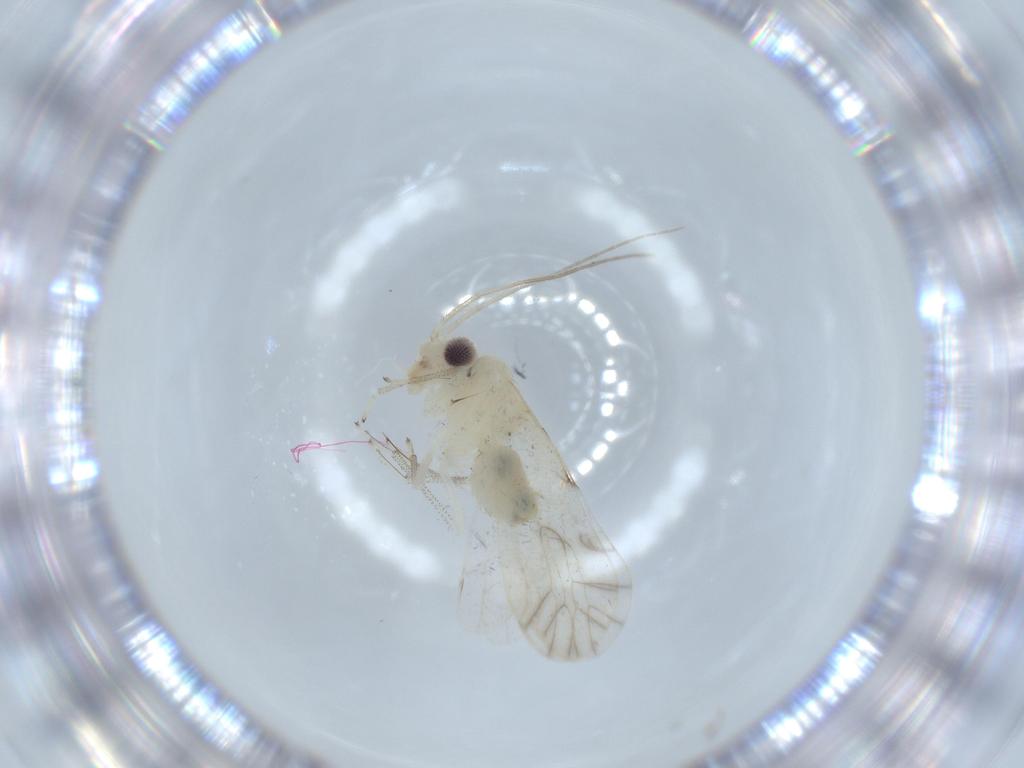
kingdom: Animalia
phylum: Arthropoda
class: Insecta
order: Psocodea
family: Caeciliusidae
